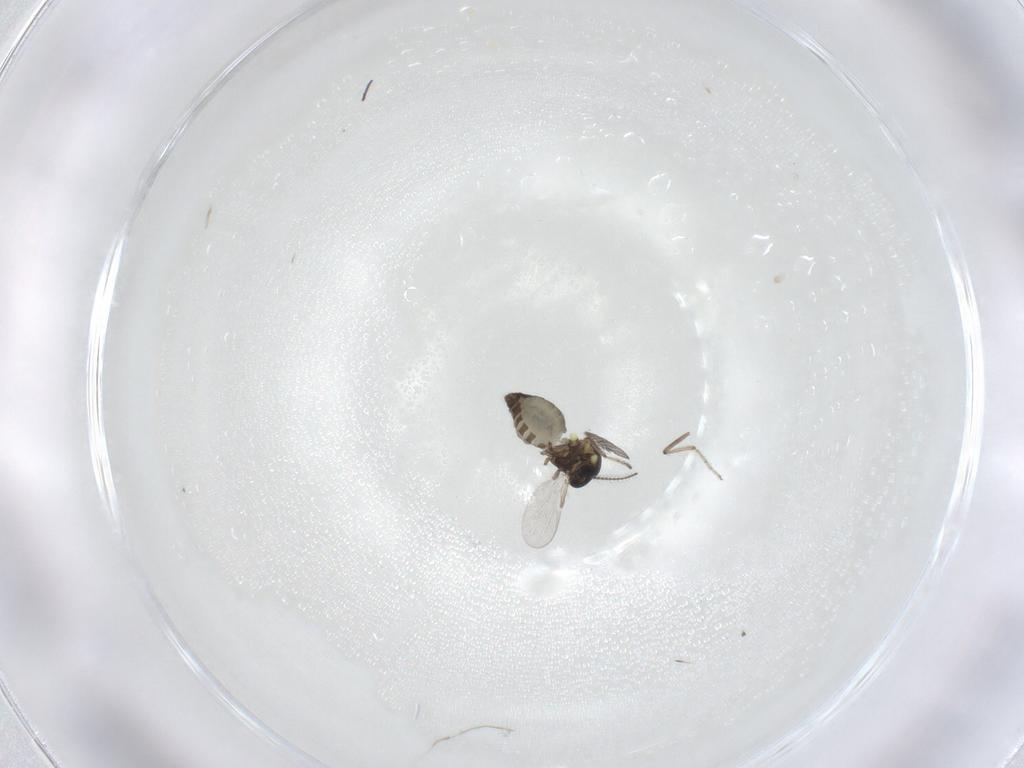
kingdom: Animalia
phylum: Arthropoda
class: Insecta
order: Diptera
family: Ceratopogonidae
